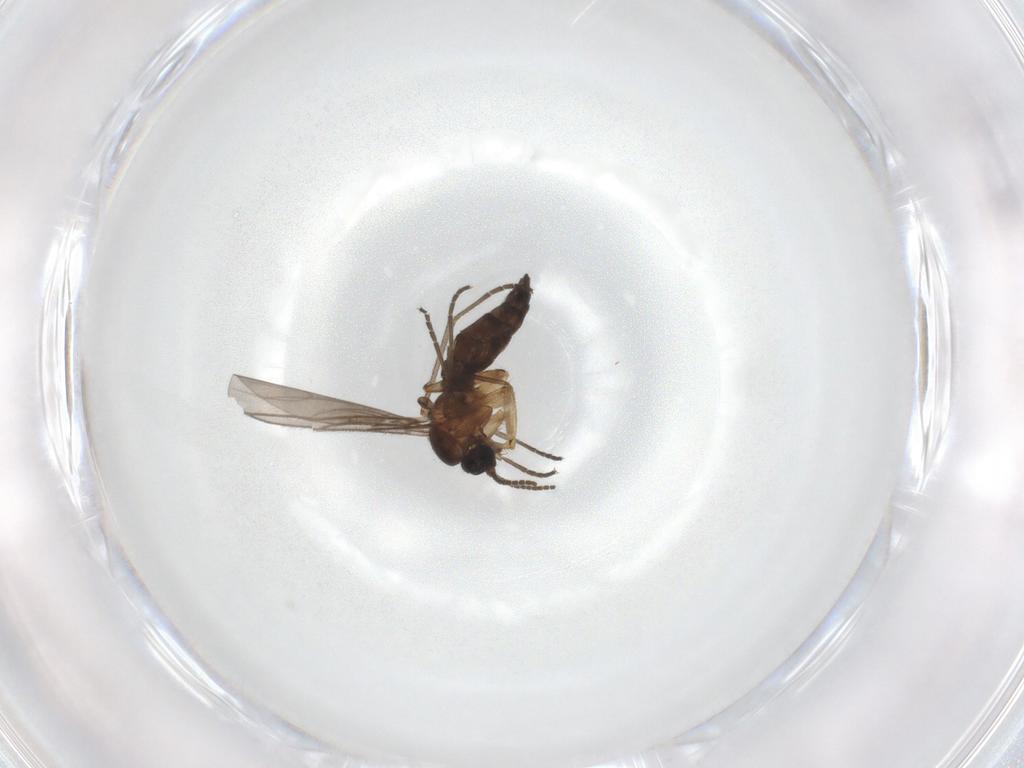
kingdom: Animalia
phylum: Arthropoda
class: Insecta
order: Diptera
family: Sciaridae
